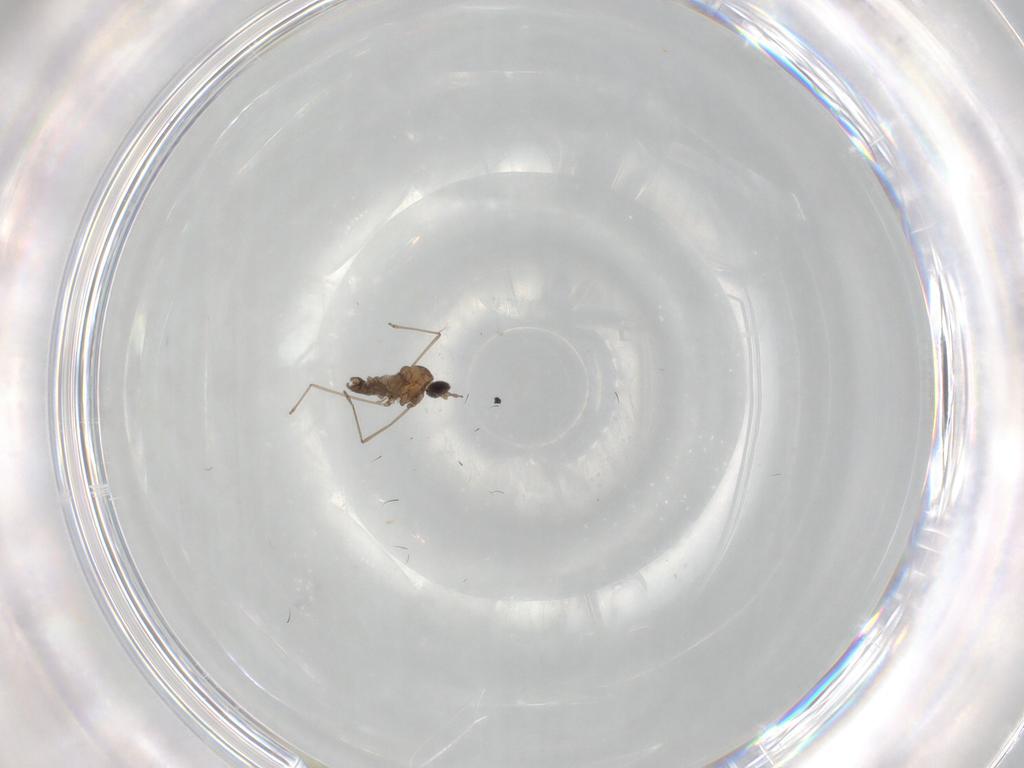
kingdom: Animalia
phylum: Arthropoda
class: Insecta
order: Diptera
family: Cecidomyiidae
